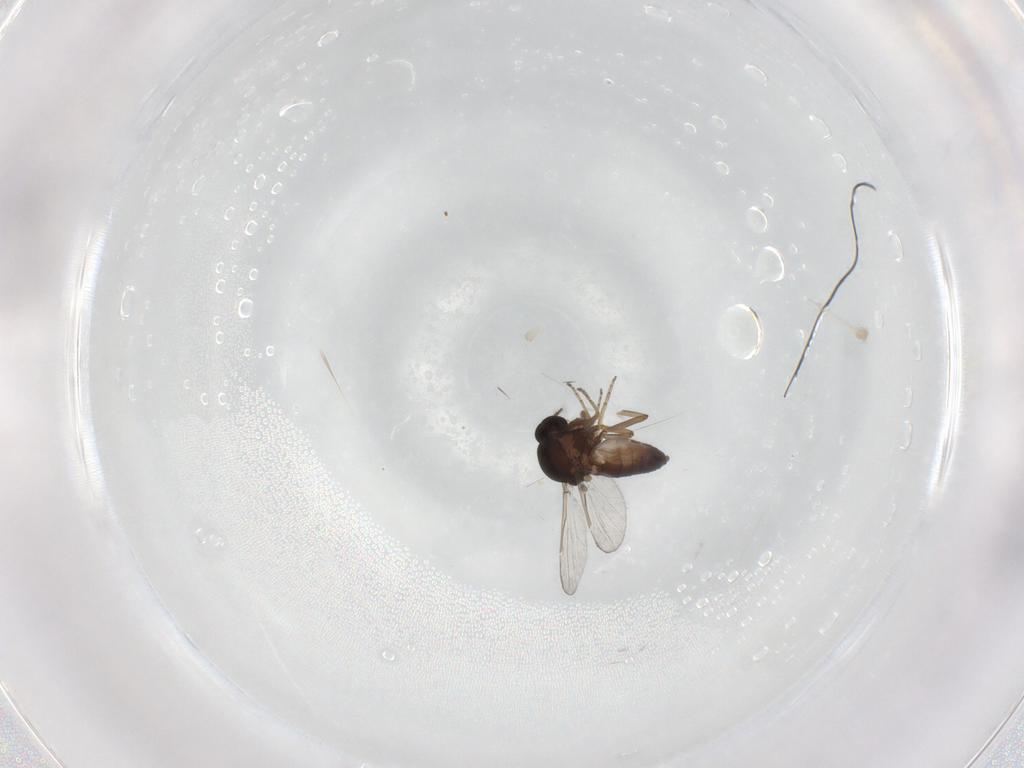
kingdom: Animalia
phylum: Arthropoda
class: Insecta
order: Diptera
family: Ceratopogonidae
